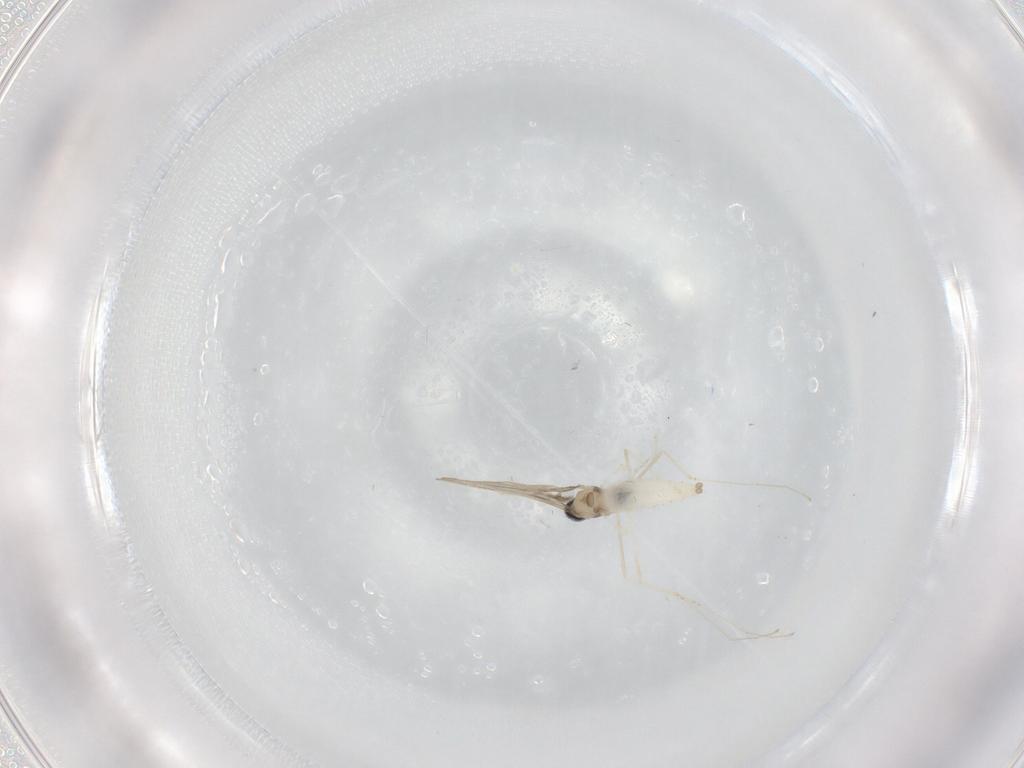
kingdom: Animalia
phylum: Arthropoda
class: Insecta
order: Diptera
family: Cecidomyiidae
